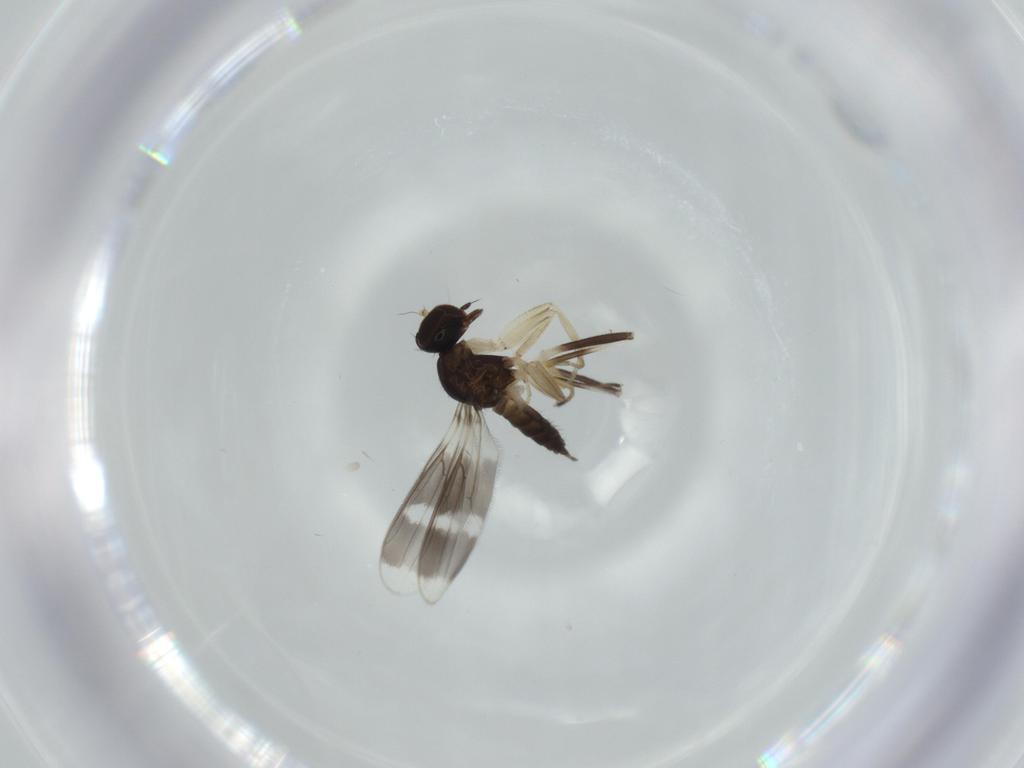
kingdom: Animalia
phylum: Arthropoda
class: Insecta
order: Diptera
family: Hybotidae
